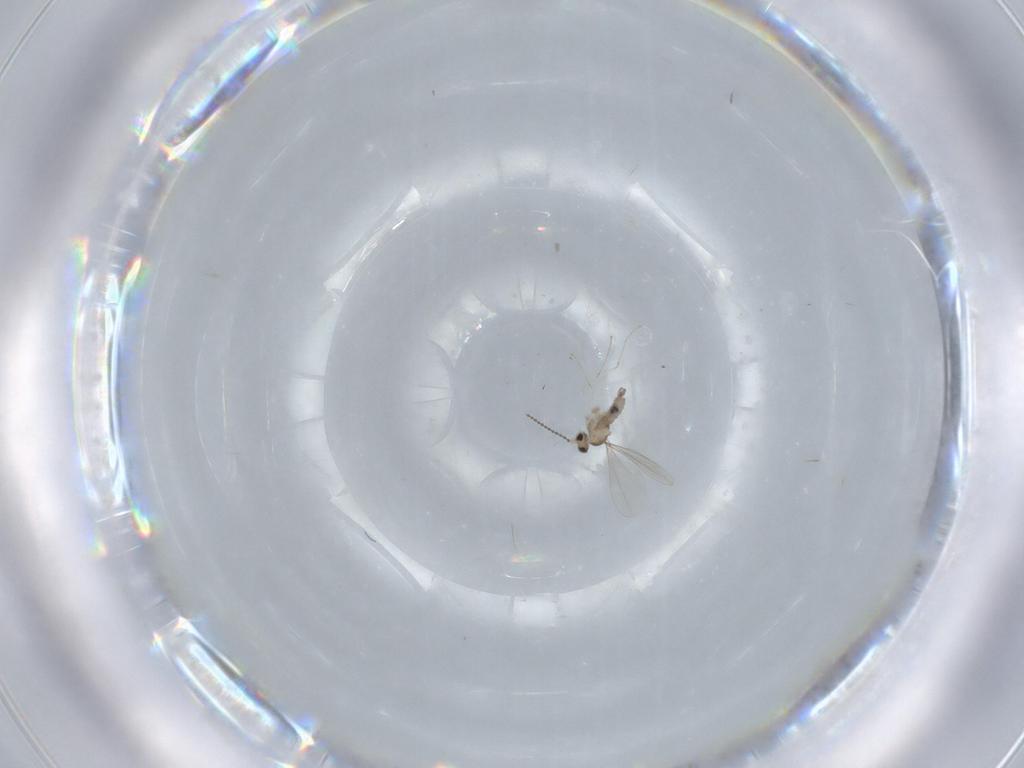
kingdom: Animalia
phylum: Arthropoda
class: Insecta
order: Diptera
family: Cecidomyiidae
